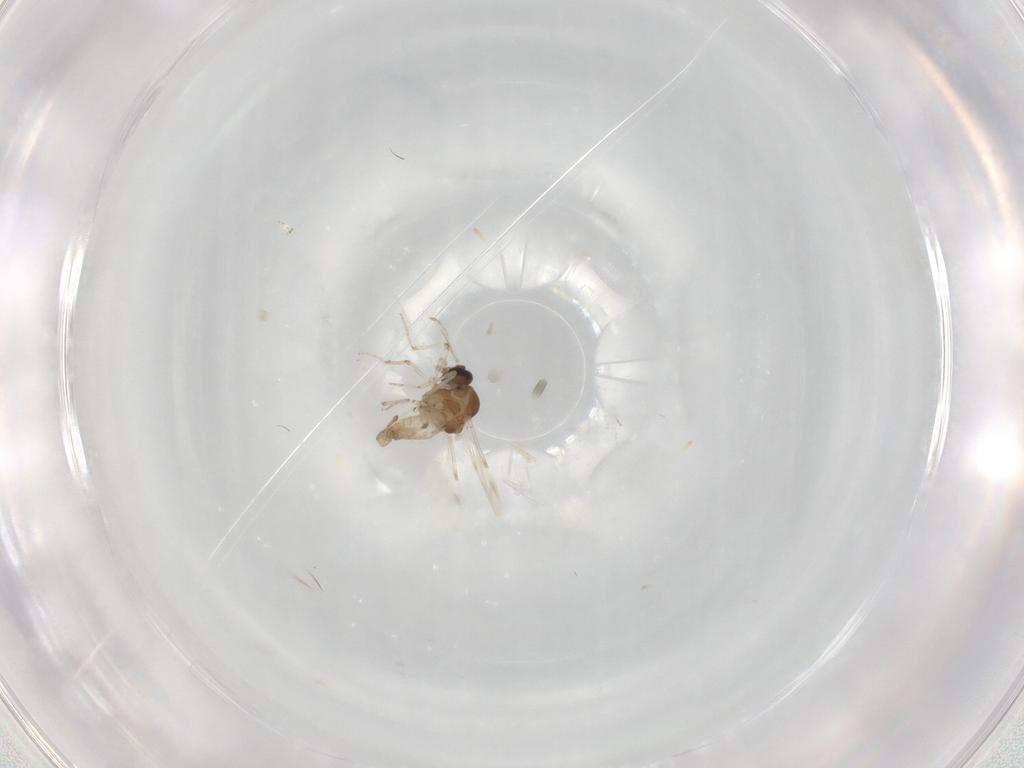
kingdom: Animalia
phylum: Arthropoda
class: Insecta
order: Diptera
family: Ceratopogonidae
